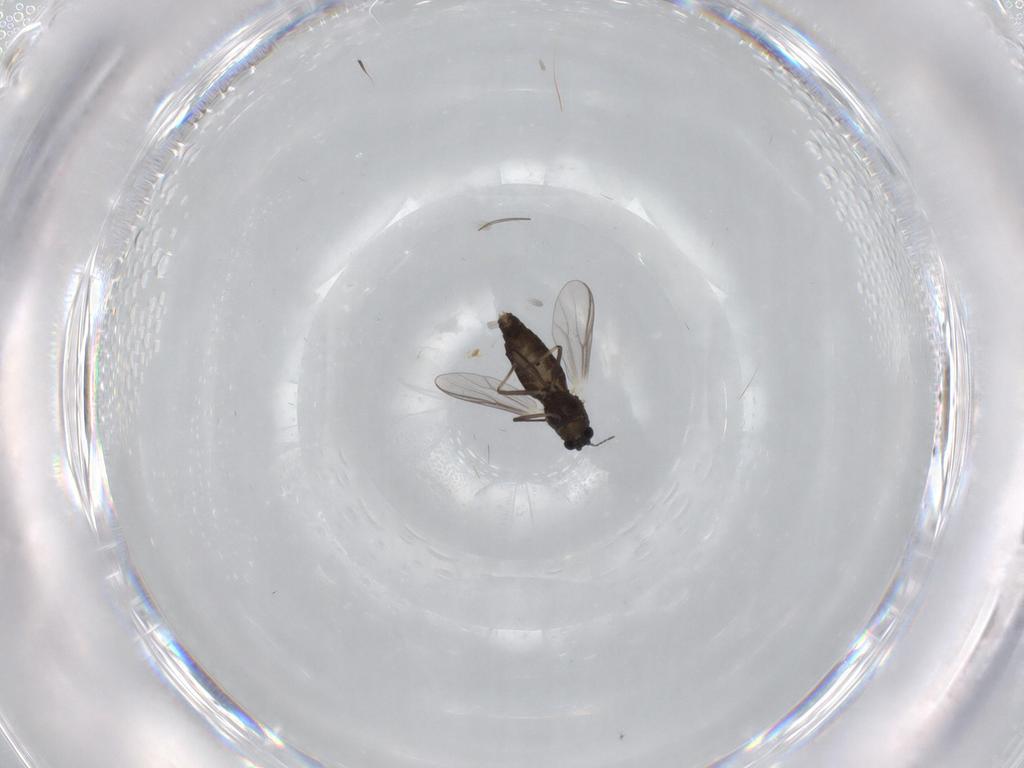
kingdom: Animalia
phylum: Arthropoda
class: Insecta
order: Diptera
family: Chironomidae
